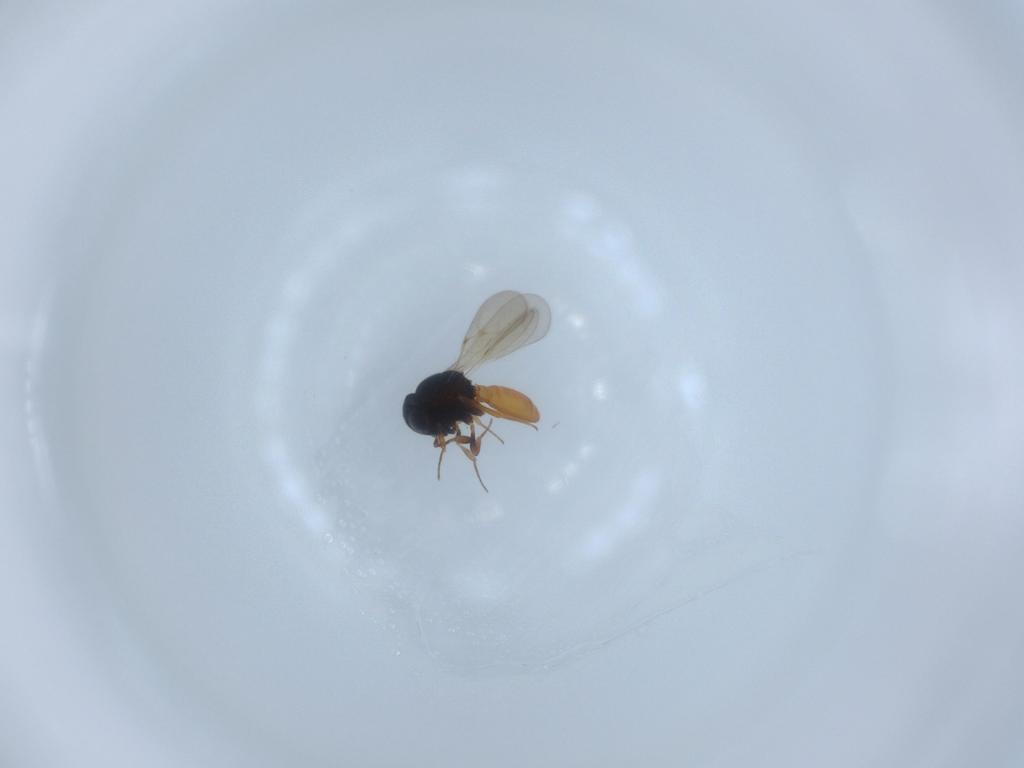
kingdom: Animalia
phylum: Arthropoda
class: Insecta
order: Hymenoptera
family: Scelionidae
